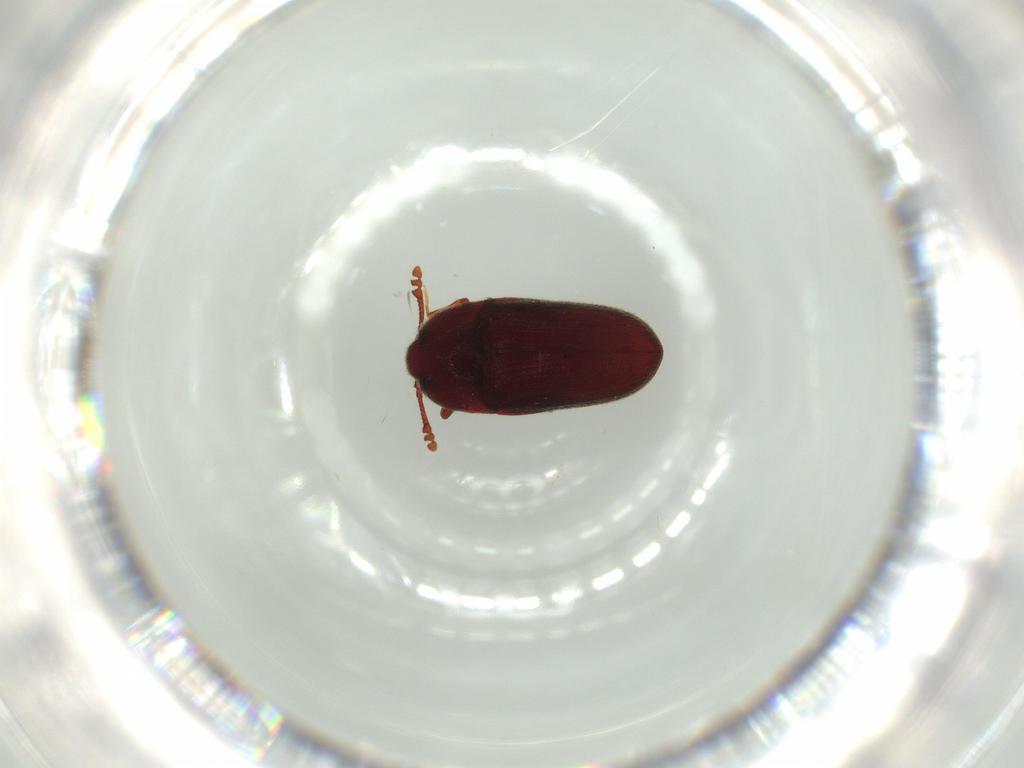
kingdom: Animalia
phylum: Arthropoda
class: Insecta
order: Coleoptera
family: Throscidae
